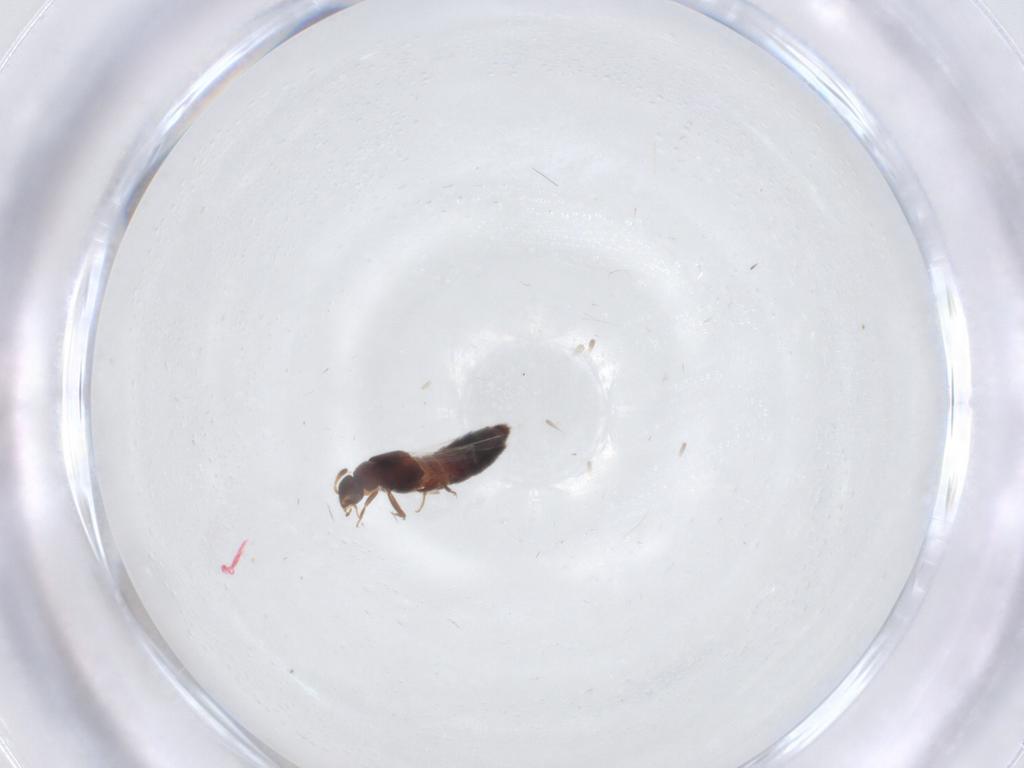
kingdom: Animalia
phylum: Arthropoda
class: Insecta
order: Coleoptera
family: Staphylinidae
